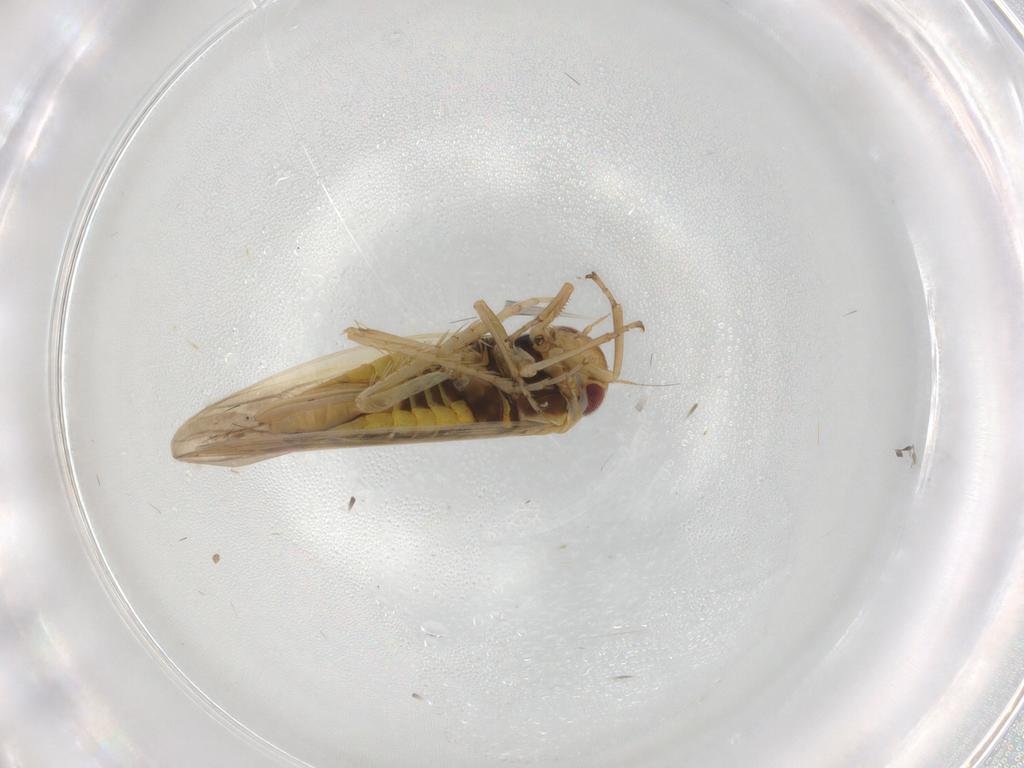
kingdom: Animalia
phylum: Arthropoda
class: Insecta
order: Hemiptera
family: Cicadellidae
